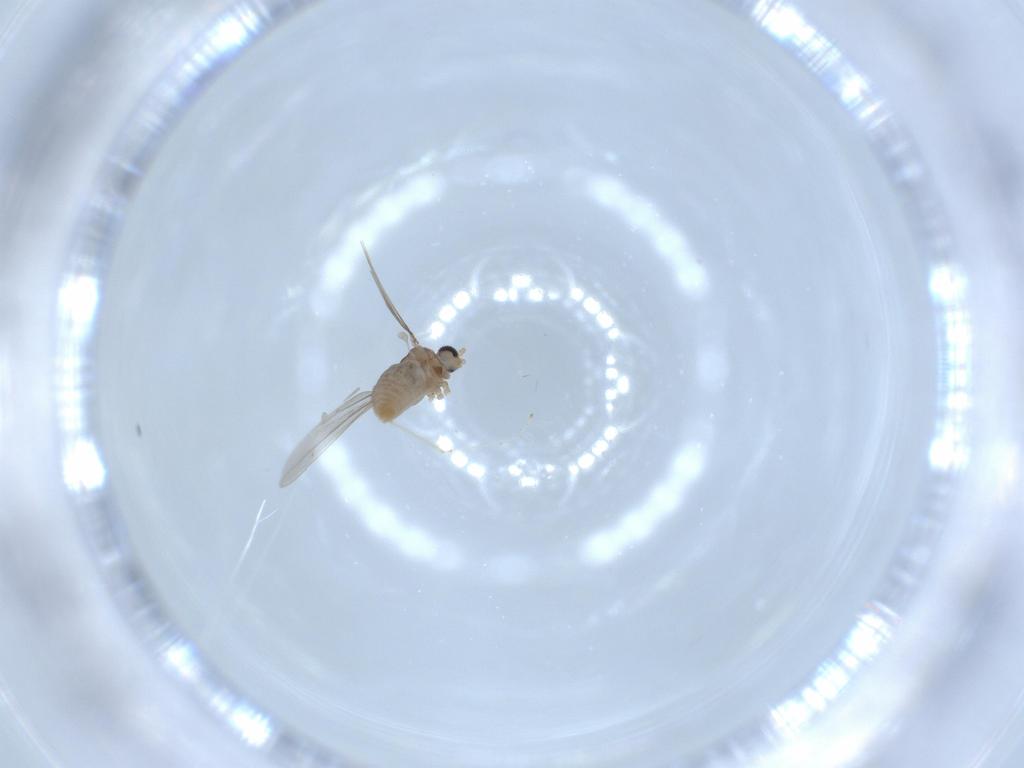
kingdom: Animalia
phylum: Arthropoda
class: Insecta
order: Diptera
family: Cecidomyiidae
